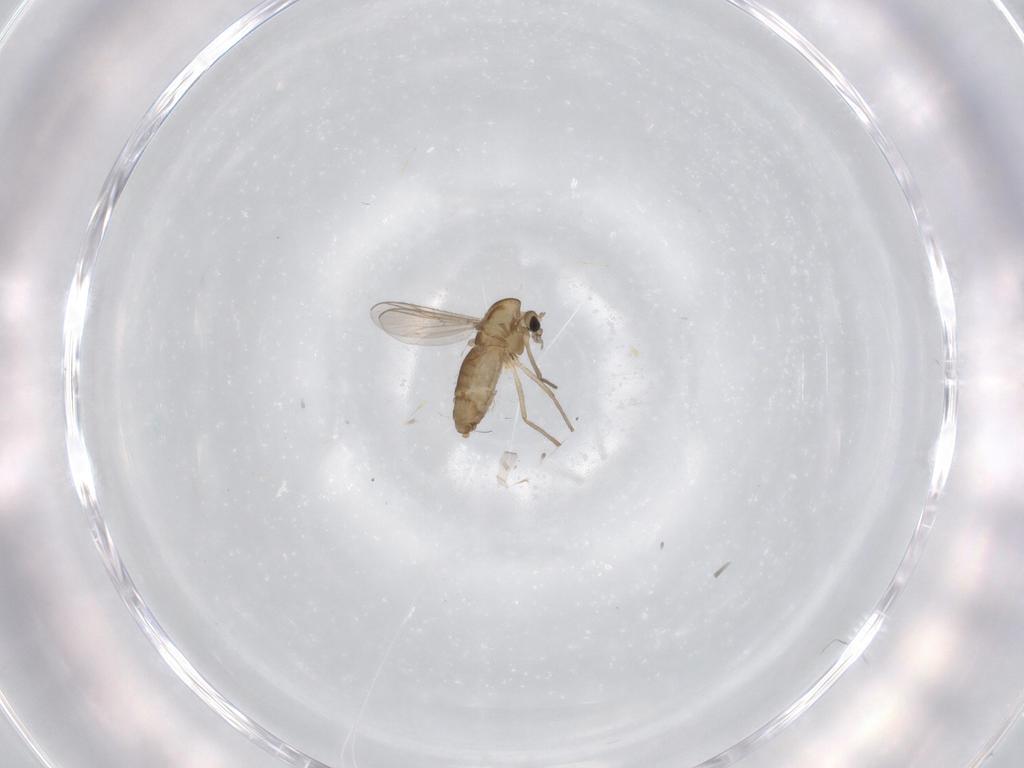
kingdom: Animalia
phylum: Arthropoda
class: Insecta
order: Diptera
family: Chironomidae
